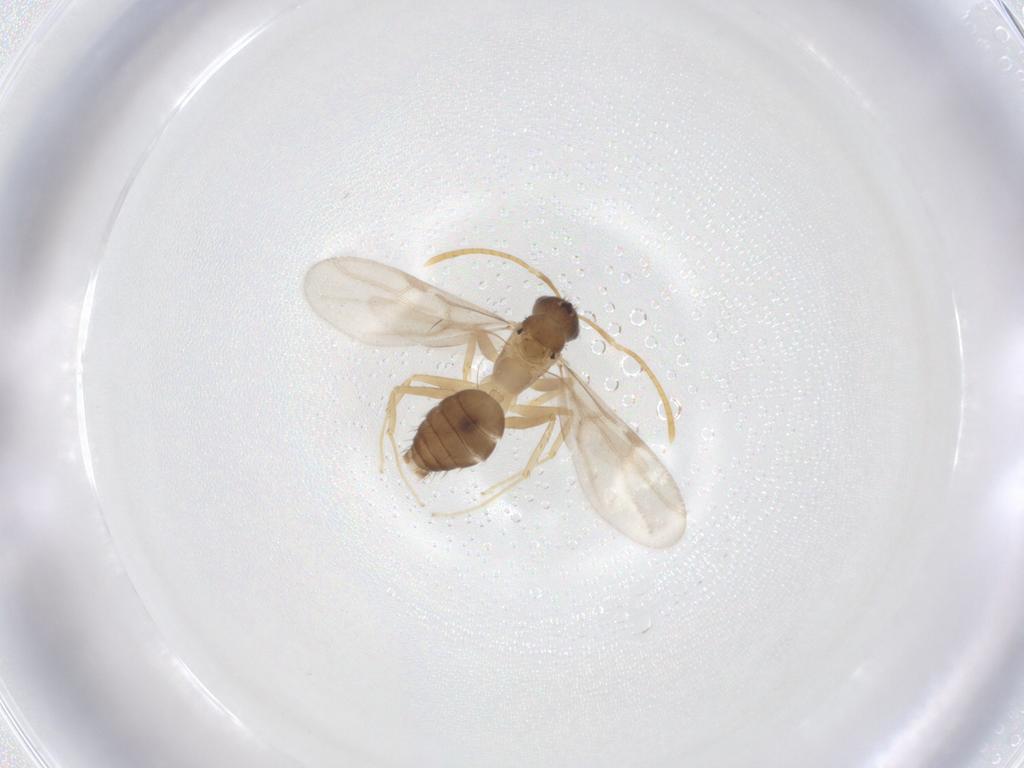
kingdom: Animalia
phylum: Arthropoda
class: Insecta
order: Hymenoptera
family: Formicidae
